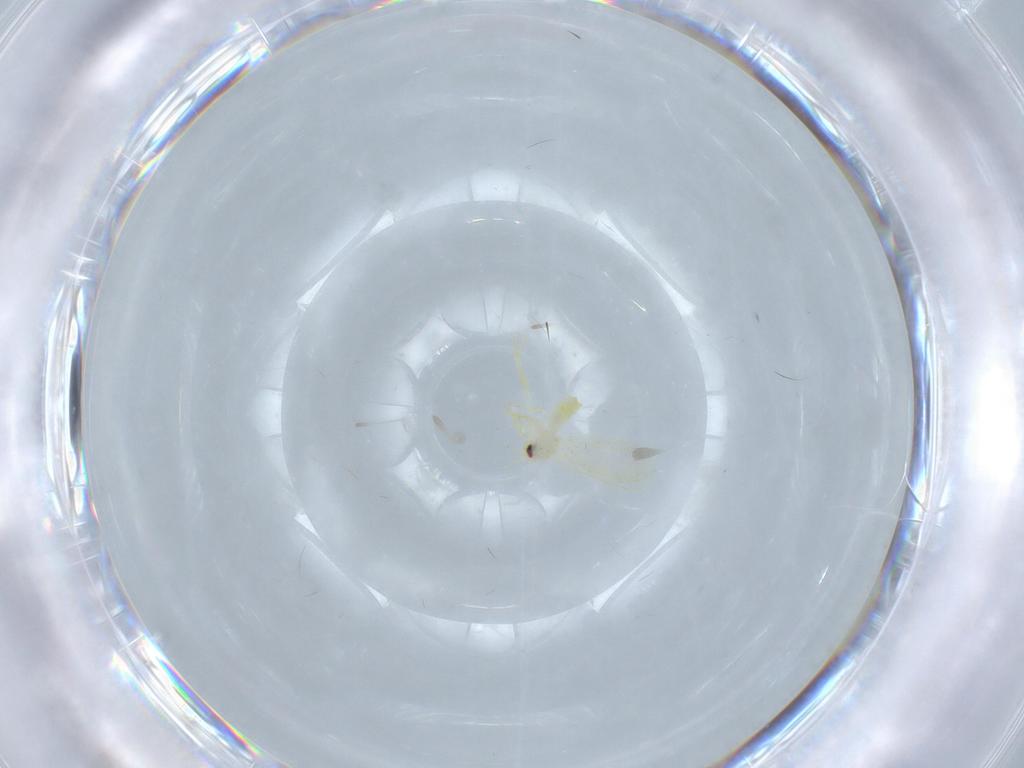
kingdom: Animalia
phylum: Arthropoda
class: Insecta
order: Hemiptera
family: Aleyrodidae
